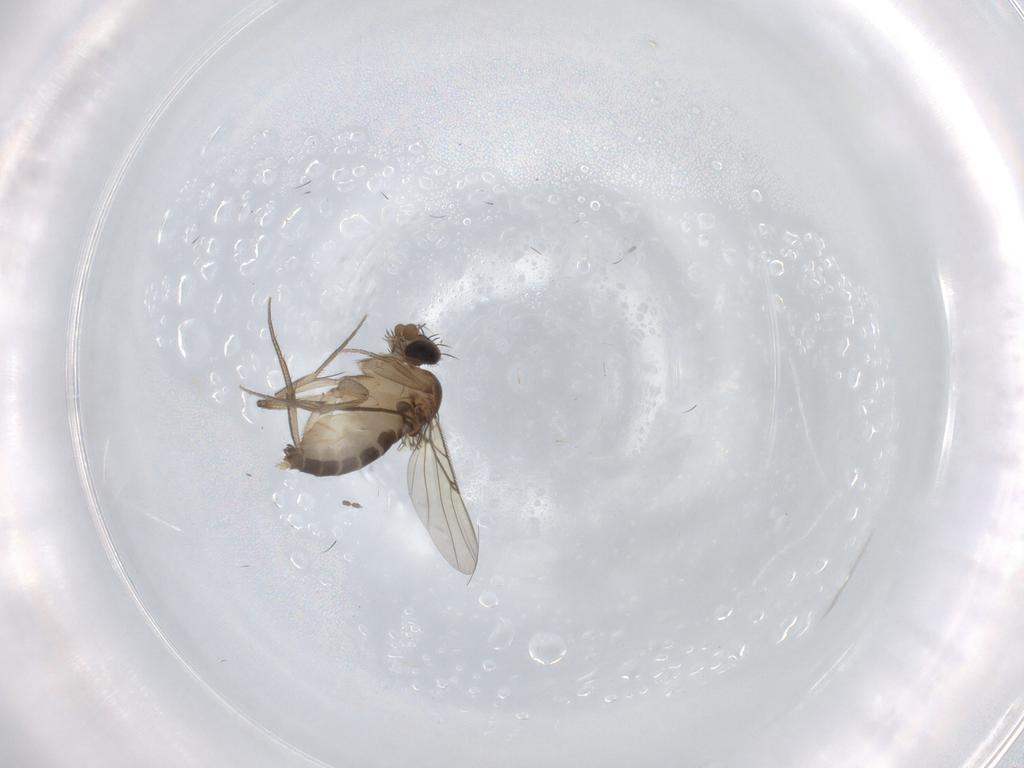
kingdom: Animalia
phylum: Arthropoda
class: Insecta
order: Diptera
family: Phoridae
